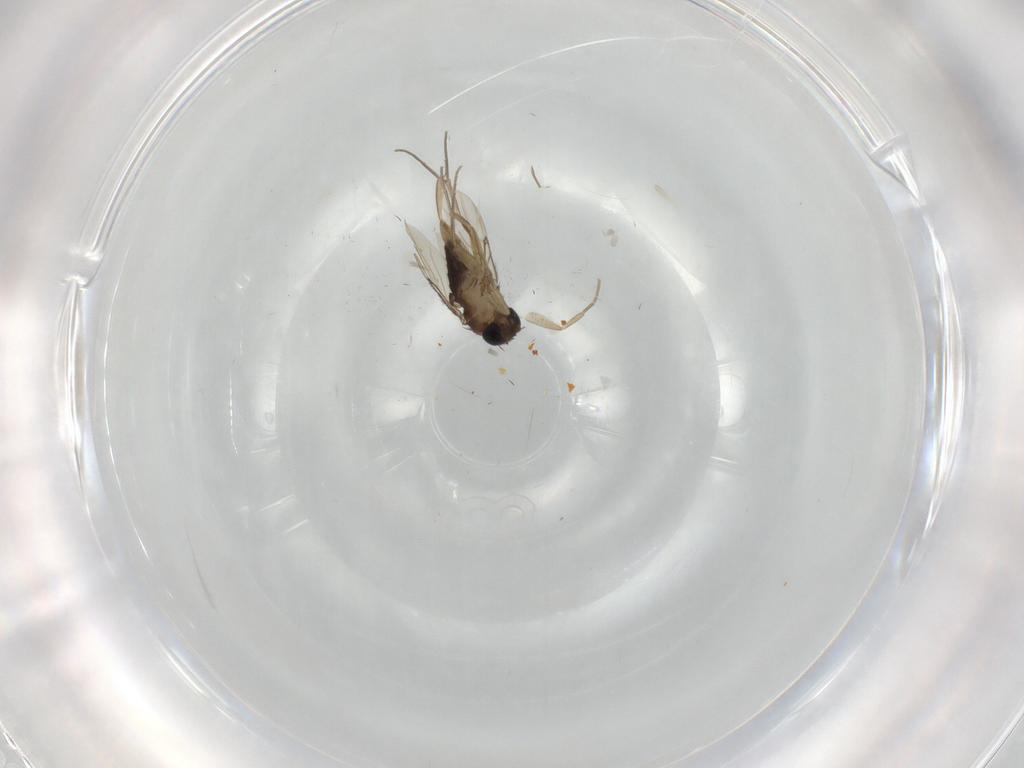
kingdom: Animalia
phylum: Arthropoda
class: Insecta
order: Diptera
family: Phoridae
